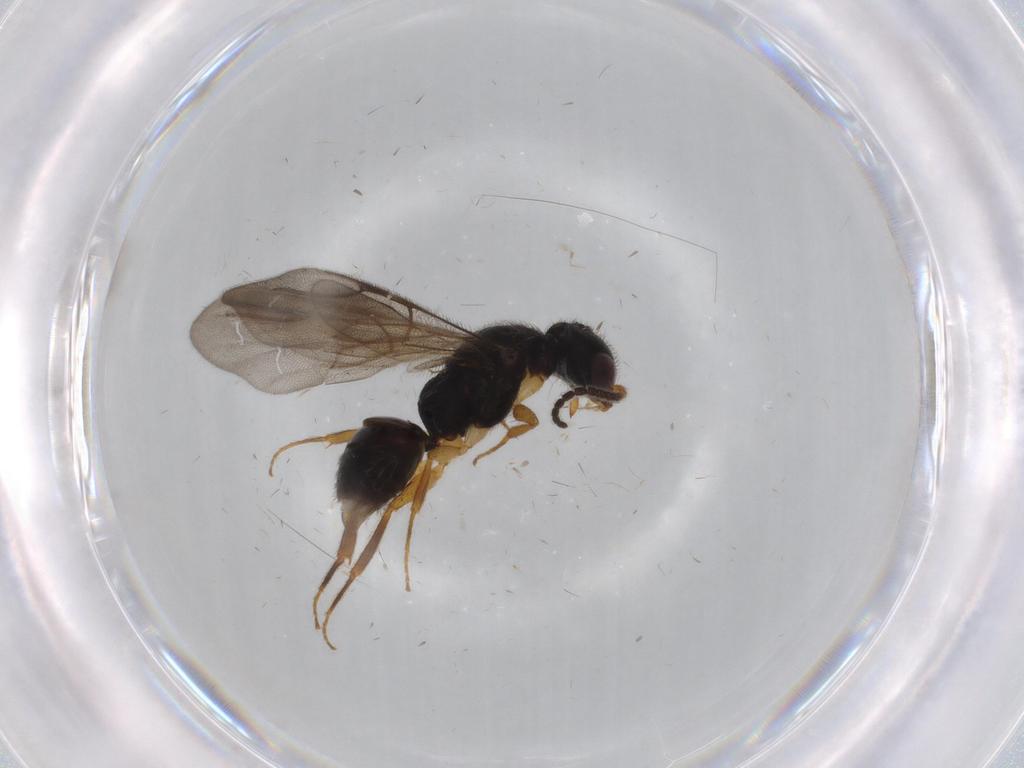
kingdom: Animalia
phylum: Arthropoda
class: Insecta
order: Hymenoptera
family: Bethylidae
